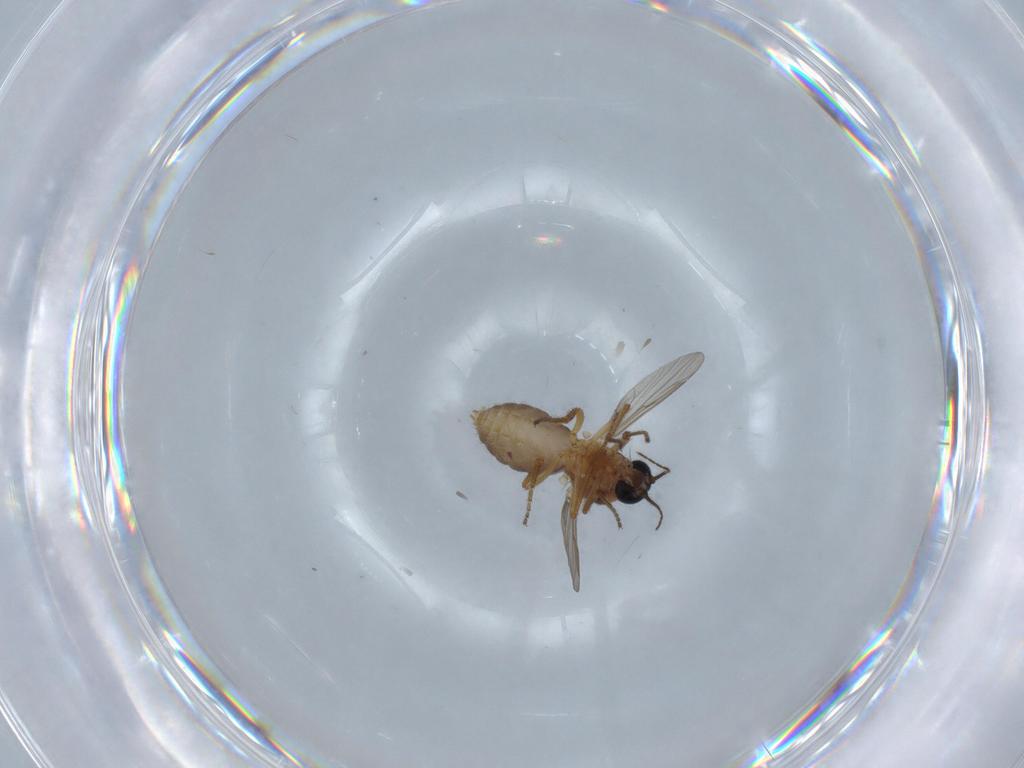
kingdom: Animalia
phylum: Arthropoda
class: Insecta
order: Diptera
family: Ceratopogonidae
